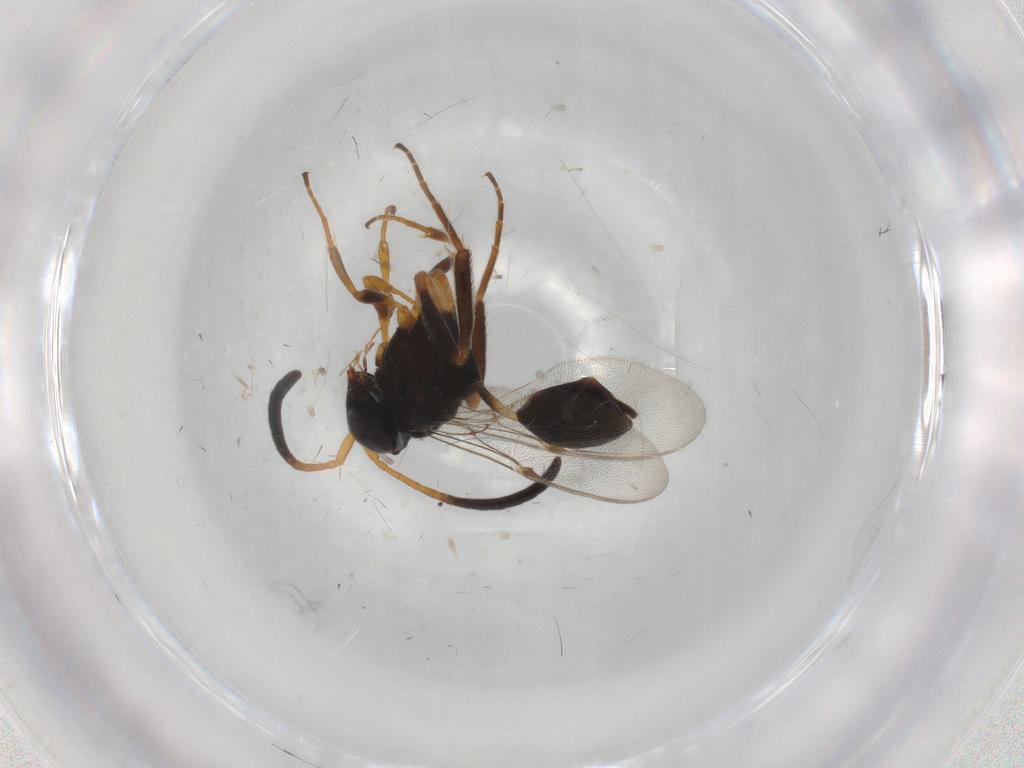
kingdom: Animalia
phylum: Arthropoda
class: Insecta
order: Hymenoptera
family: Evaniidae
